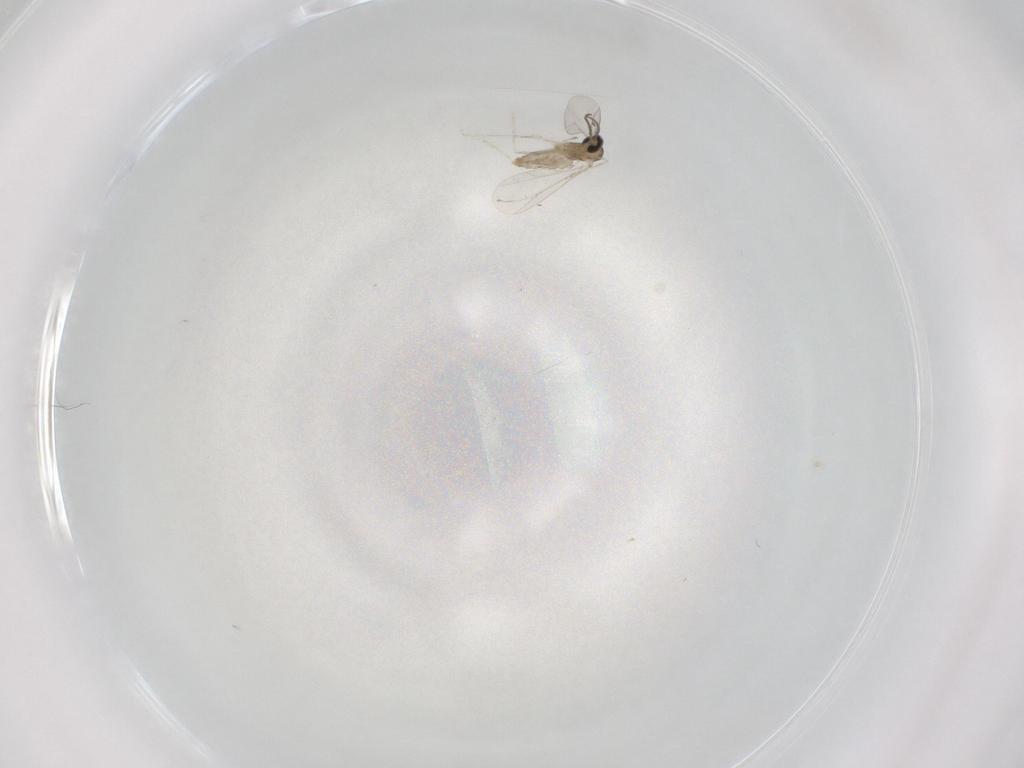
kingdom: Animalia
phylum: Arthropoda
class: Insecta
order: Diptera
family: Cecidomyiidae
